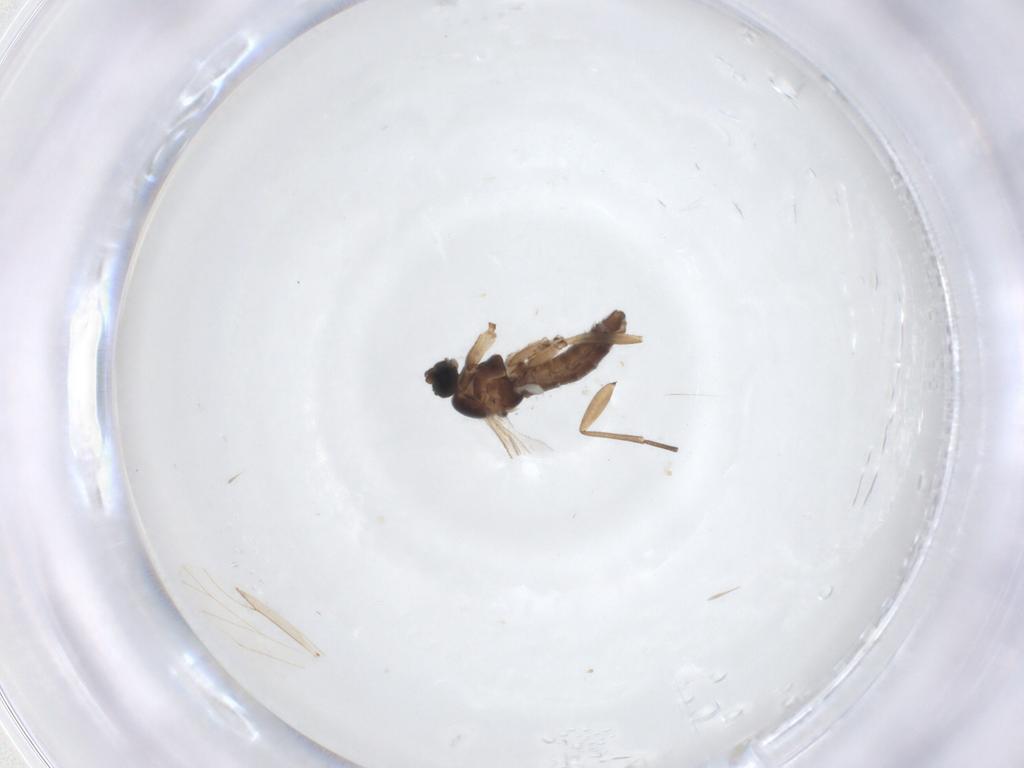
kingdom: Animalia
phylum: Arthropoda
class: Insecta
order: Diptera
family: Sciaridae
